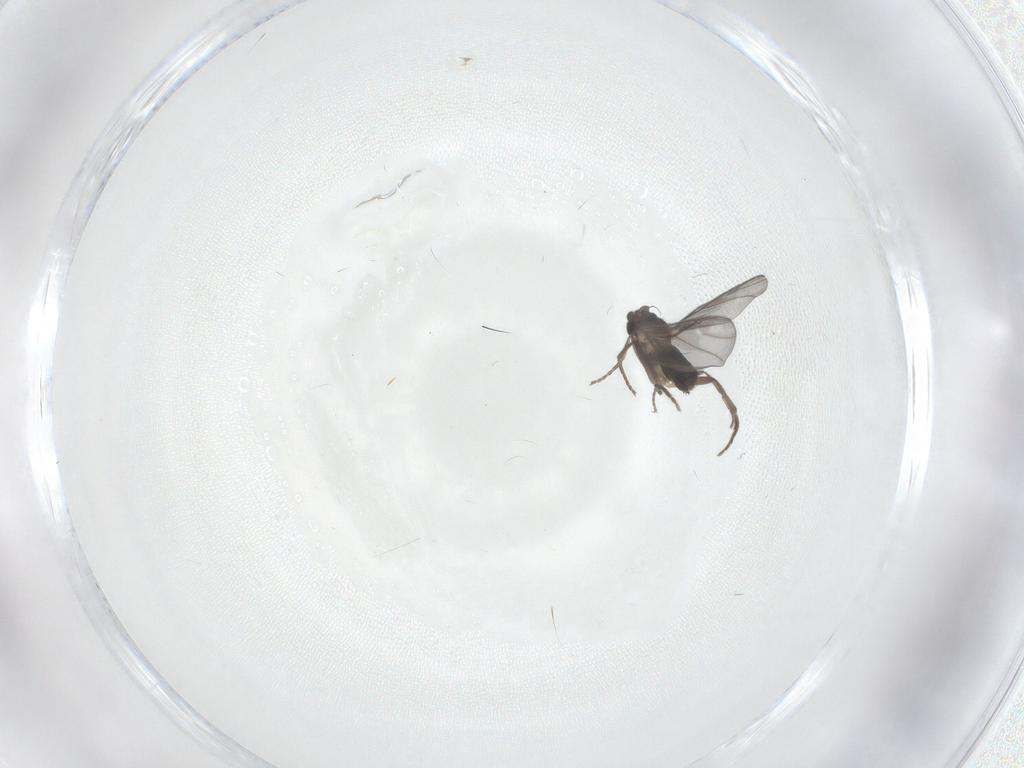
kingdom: Animalia
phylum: Arthropoda
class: Insecta
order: Diptera
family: Phoridae
